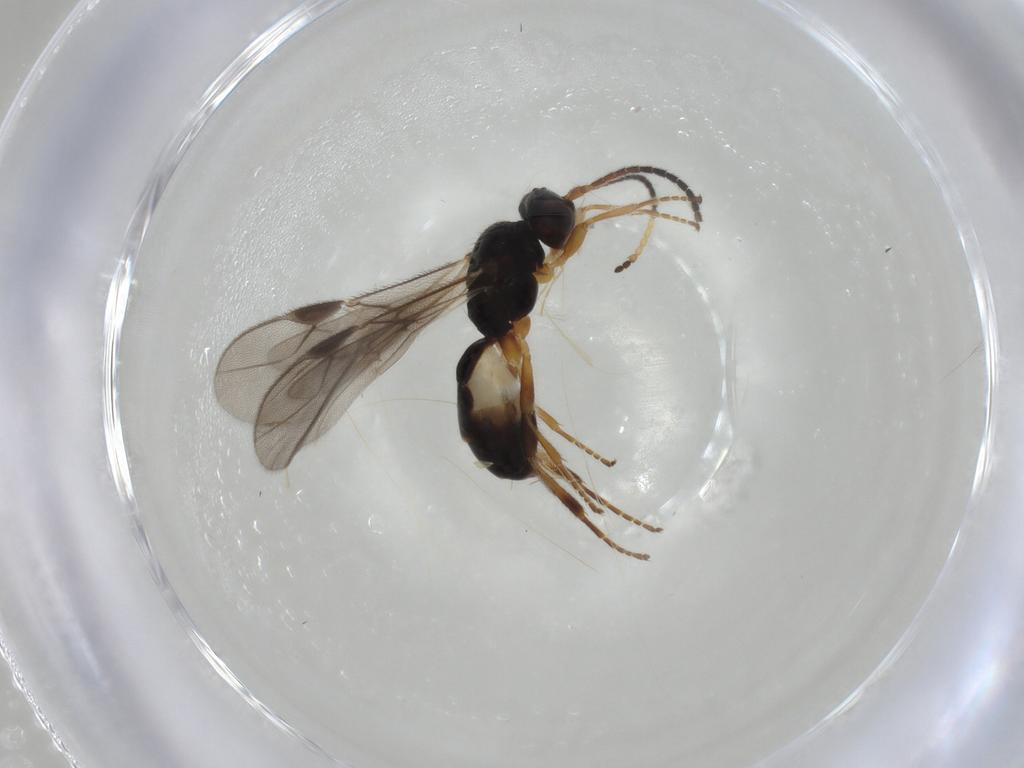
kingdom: Animalia
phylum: Arthropoda
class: Insecta
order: Hymenoptera
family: Braconidae
